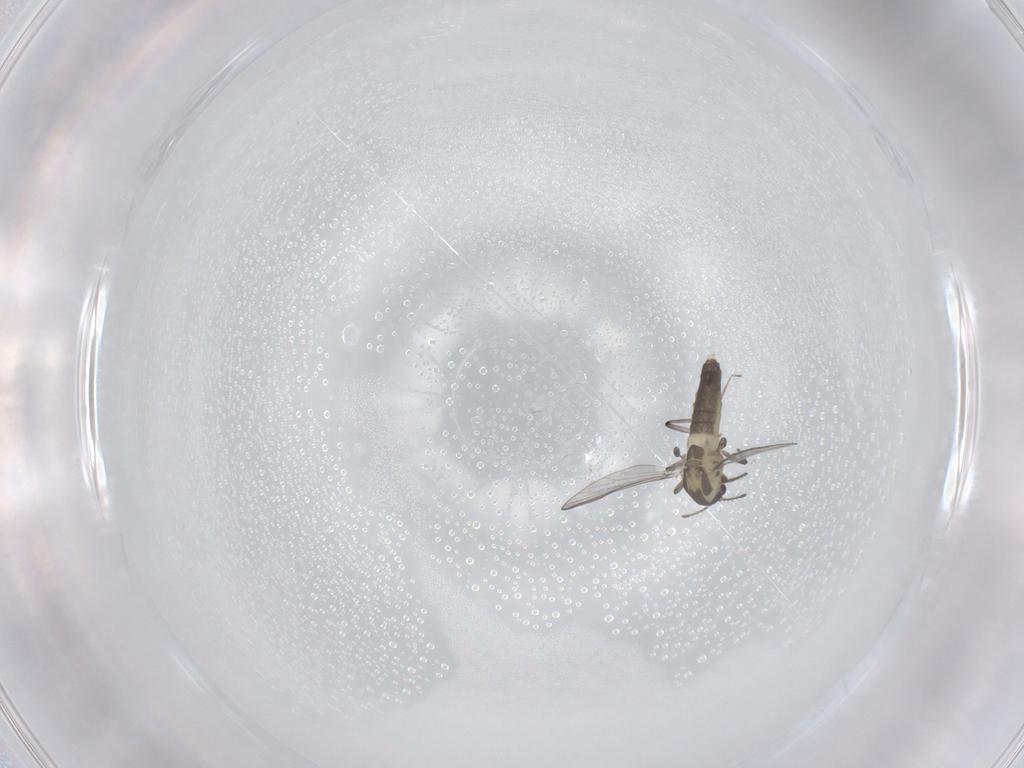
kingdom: Animalia
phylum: Arthropoda
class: Insecta
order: Diptera
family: Chironomidae
